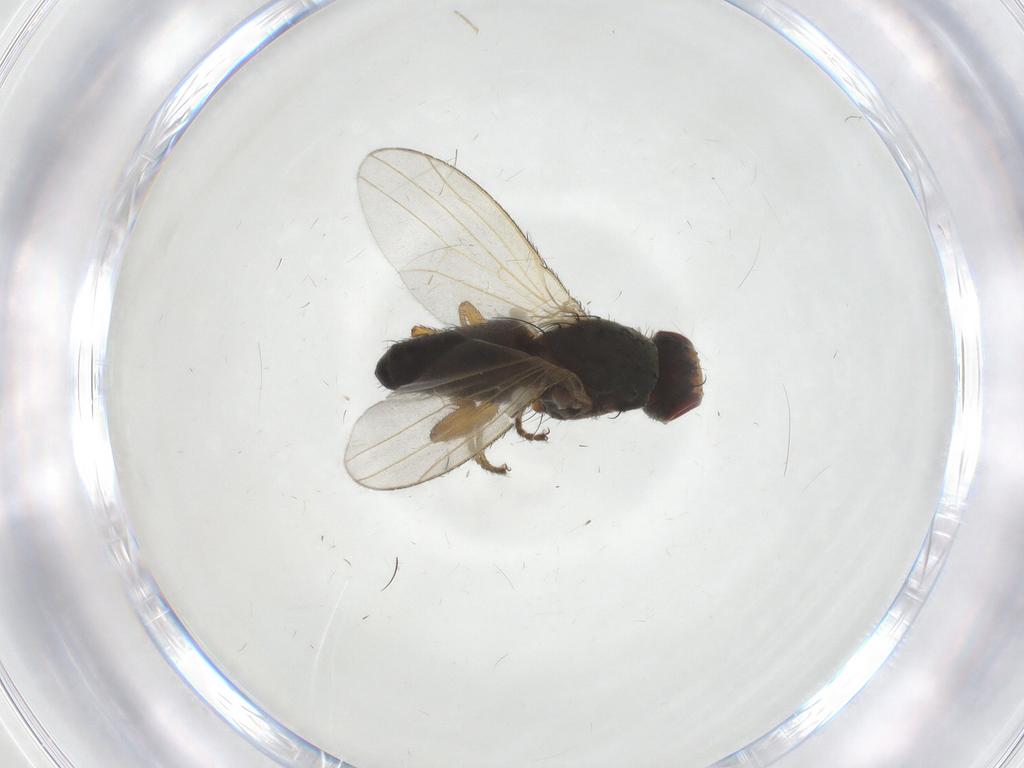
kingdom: Animalia
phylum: Arthropoda
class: Insecta
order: Diptera
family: Heleomyzidae
